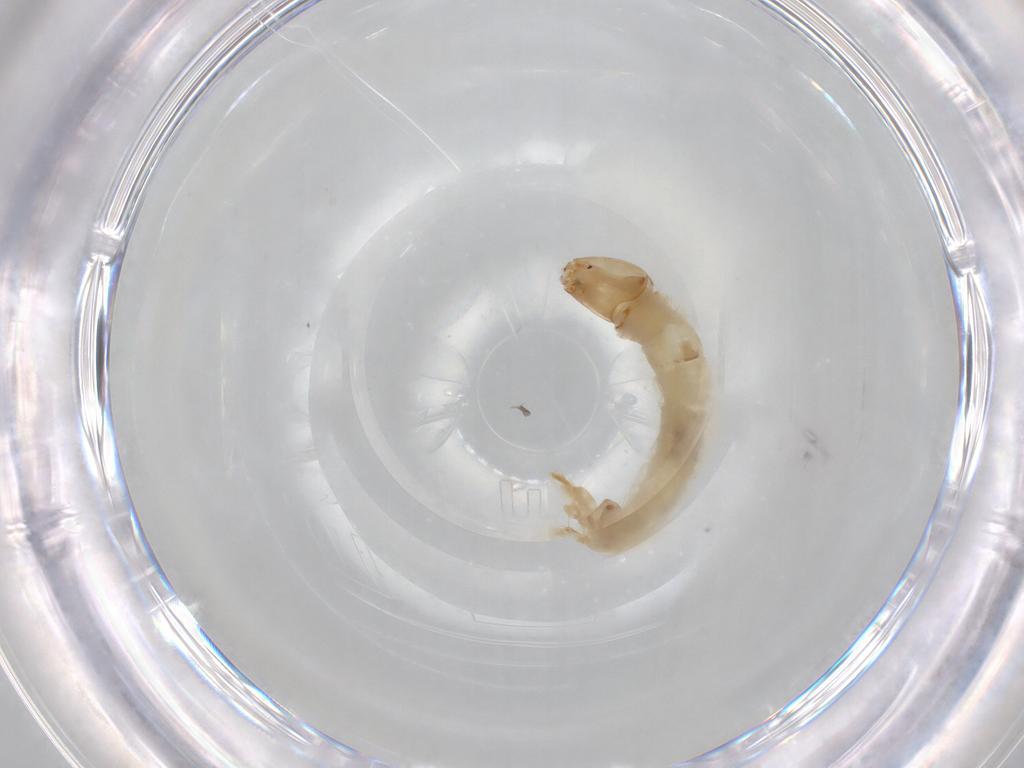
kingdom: Animalia
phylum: Arthropoda
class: Insecta
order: Diptera
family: Chironomidae
